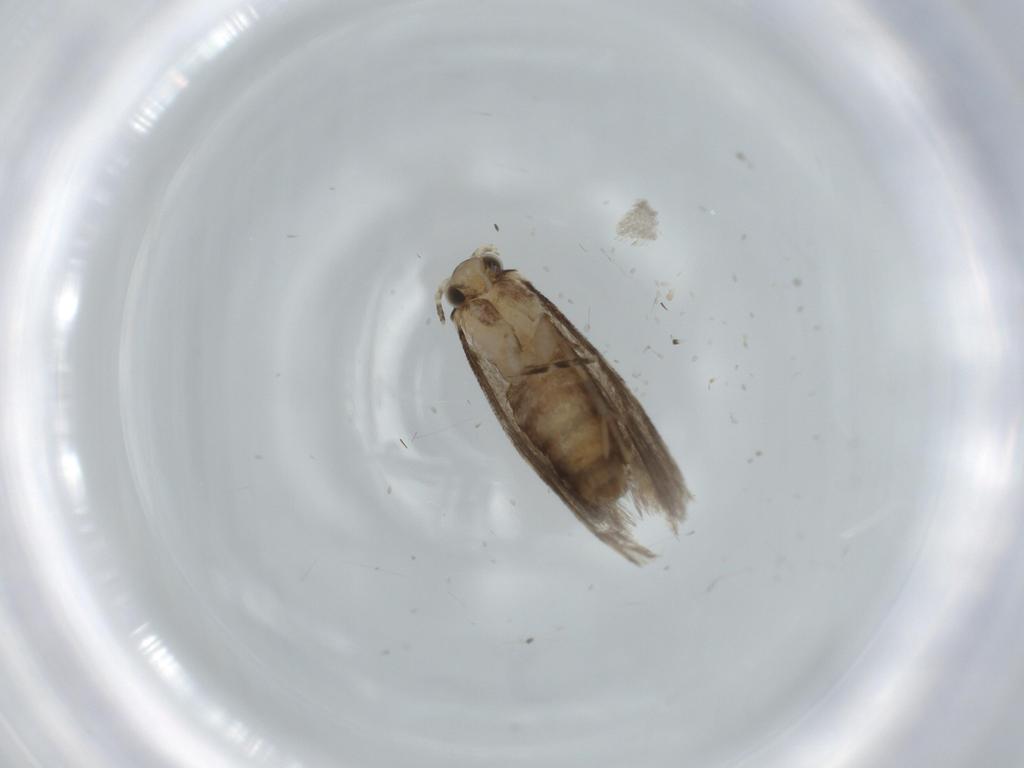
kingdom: Animalia
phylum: Arthropoda
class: Insecta
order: Lepidoptera
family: Tineidae
